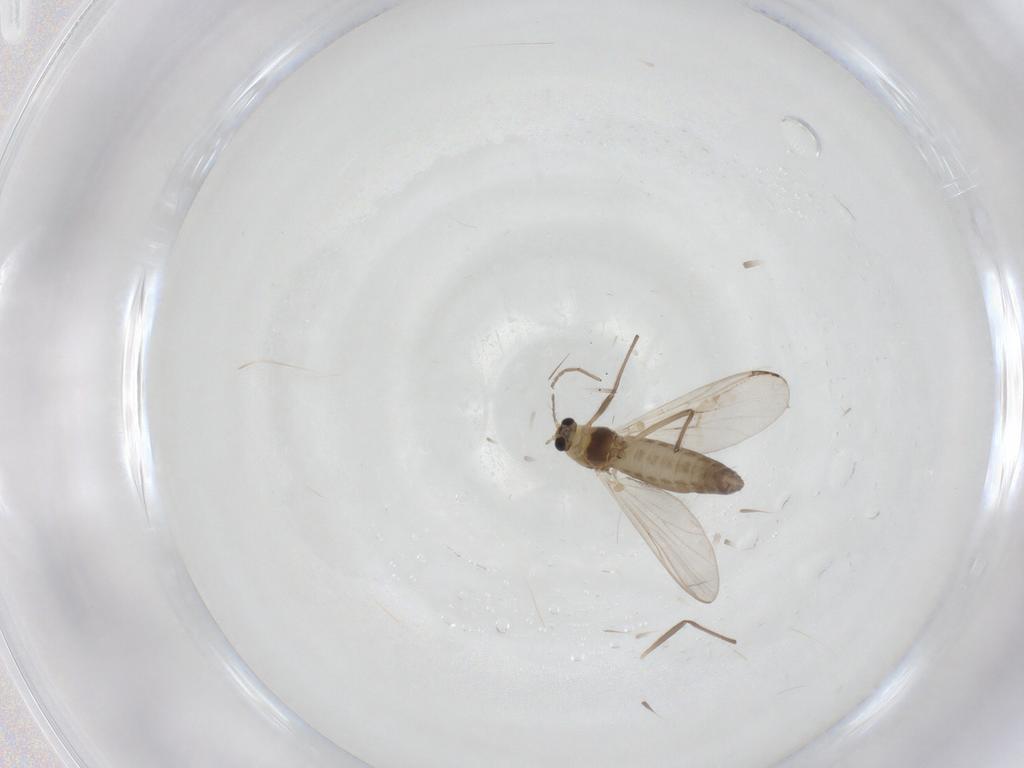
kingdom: Animalia
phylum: Arthropoda
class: Insecta
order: Diptera
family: Chironomidae
